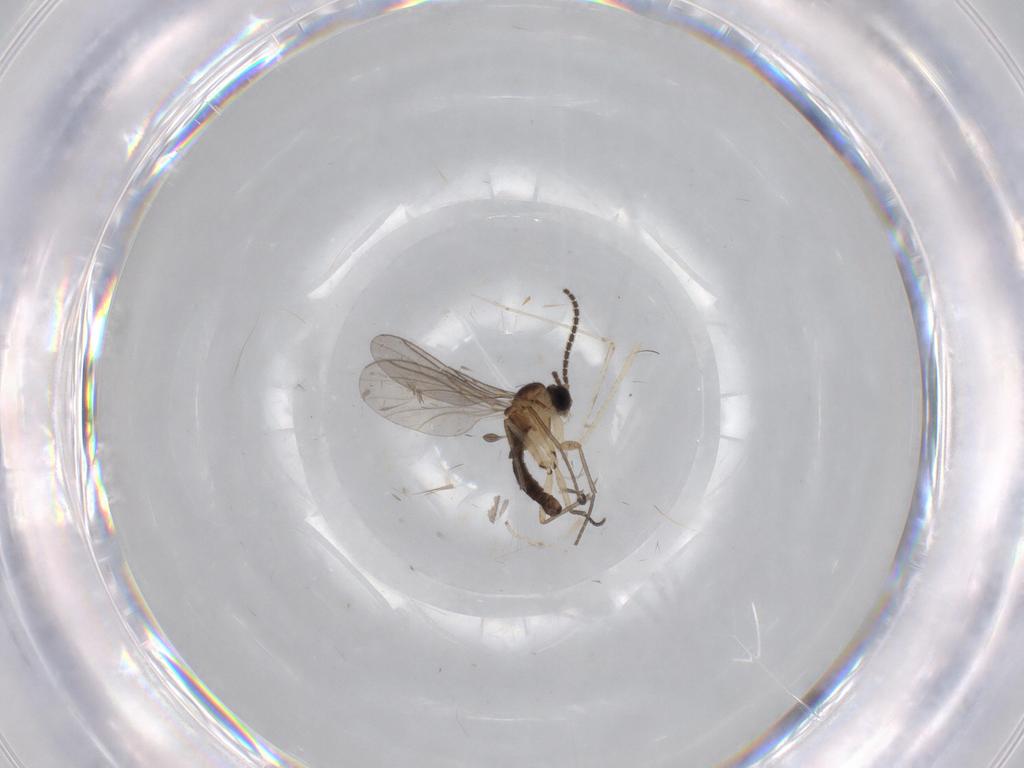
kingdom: Animalia
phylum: Arthropoda
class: Insecta
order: Diptera
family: Sciaridae
